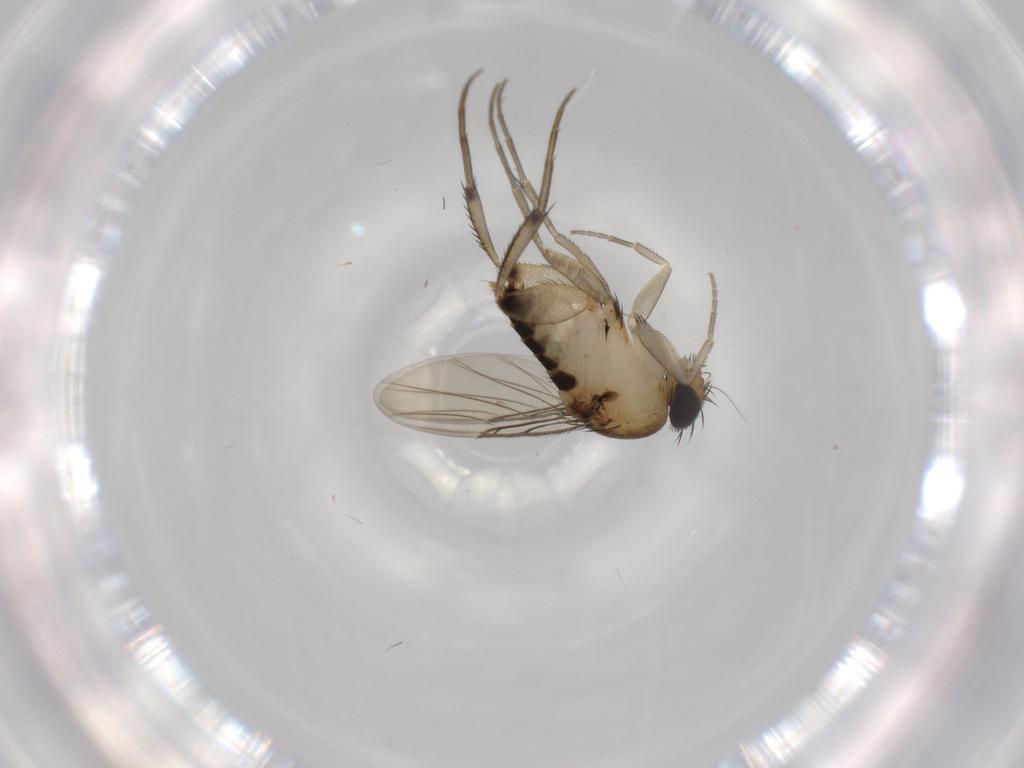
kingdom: Animalia
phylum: Arthropoda
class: Insecta
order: Diptera
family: Phoridae
